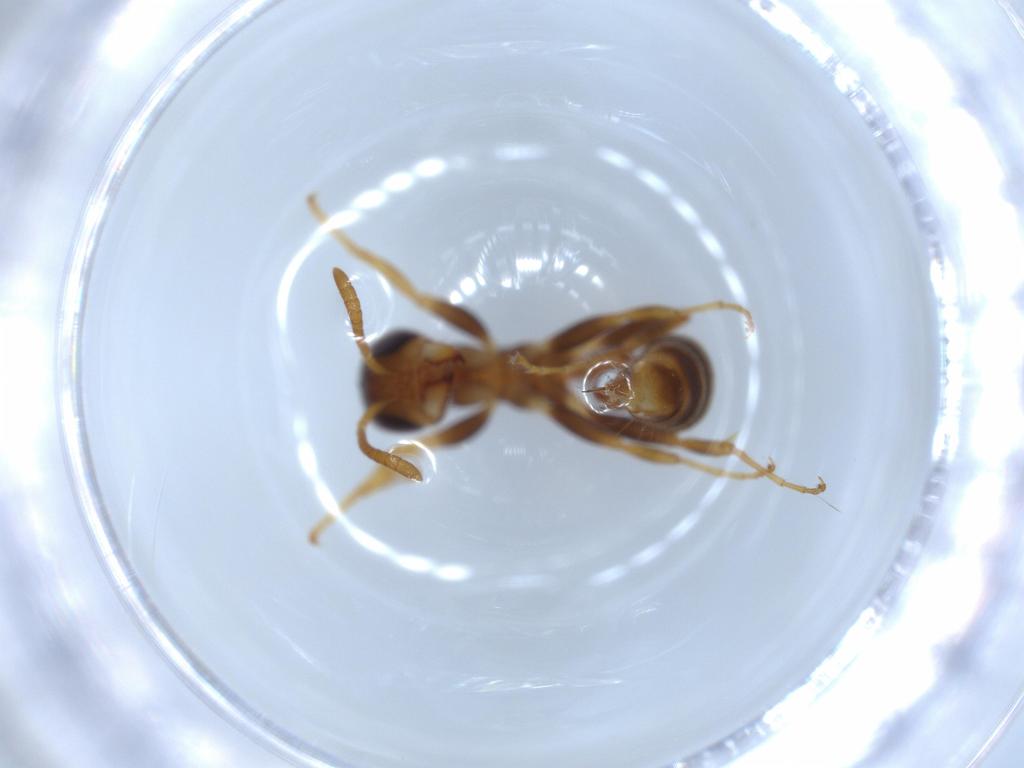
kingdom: Animalia
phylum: Arthropoda
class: Insecta
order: Hymenoptera
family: Formicidae
